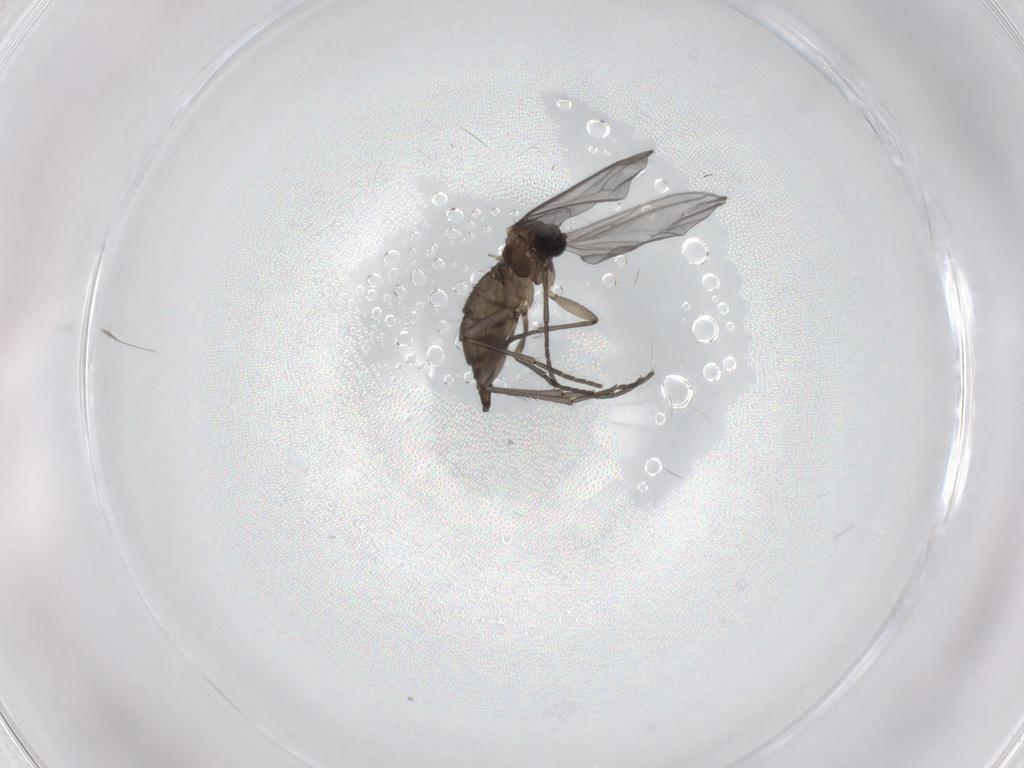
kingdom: Animalia
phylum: Arthropoda
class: Insecta
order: Diptera
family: Sciaridae
